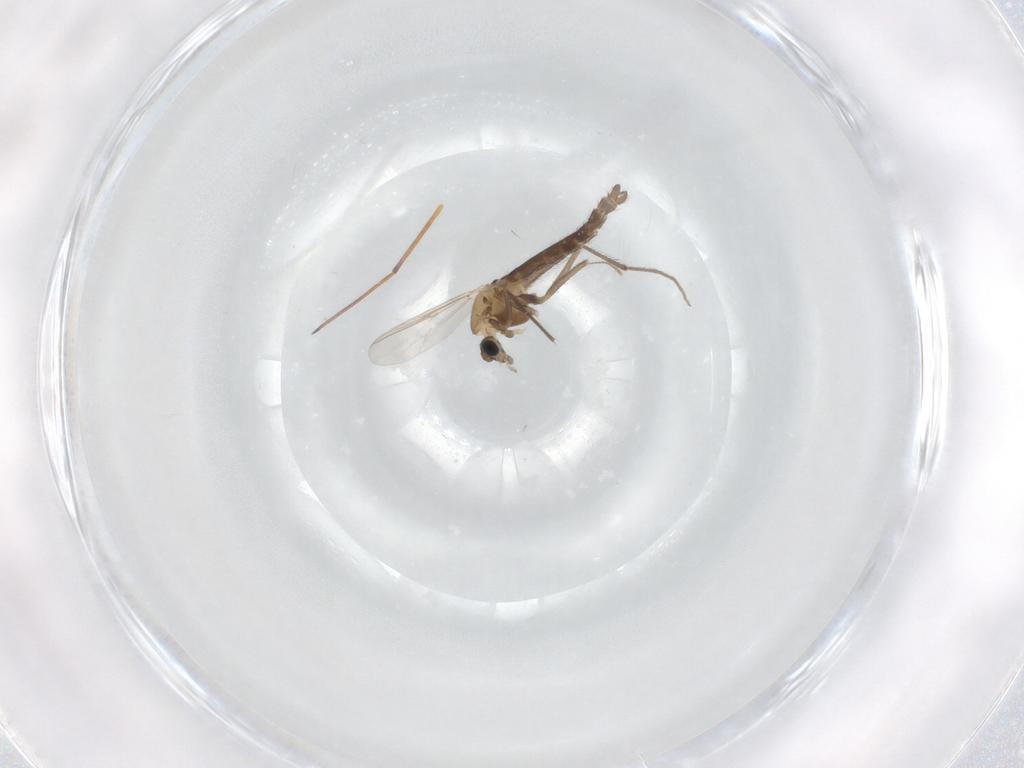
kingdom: Animalia
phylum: Arthropoda
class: Insecta
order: Diptera
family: Chironomidae
